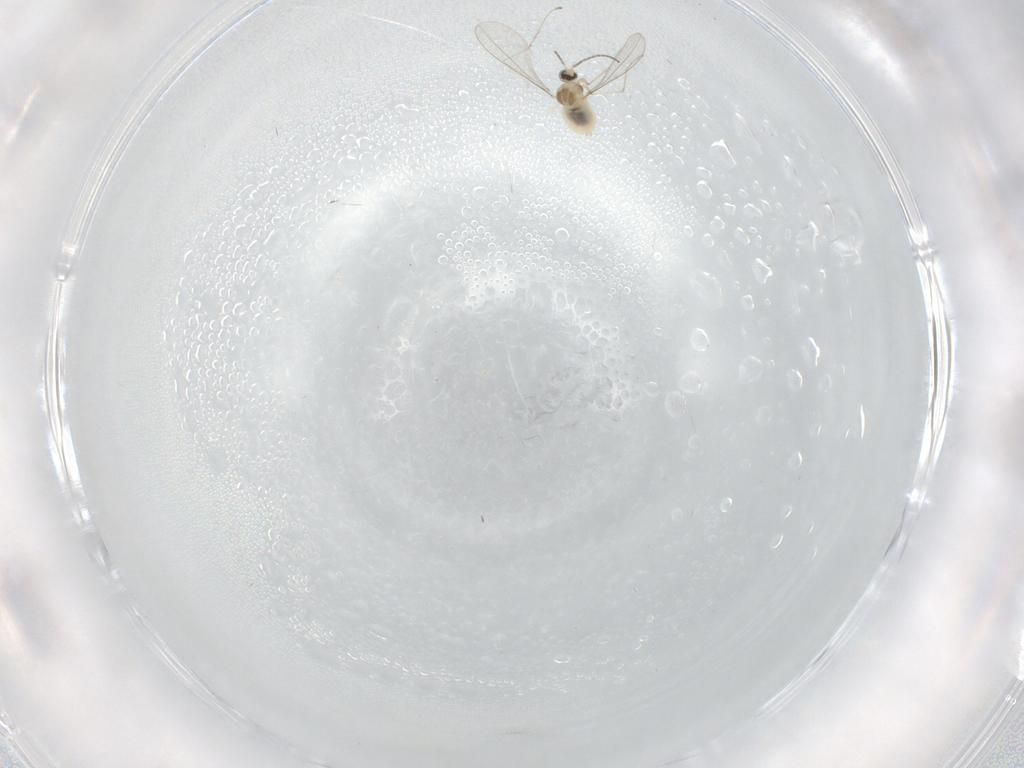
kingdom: Animalia
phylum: Arthropoda
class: Insecta
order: Diptera
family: Cecidomyiidae
